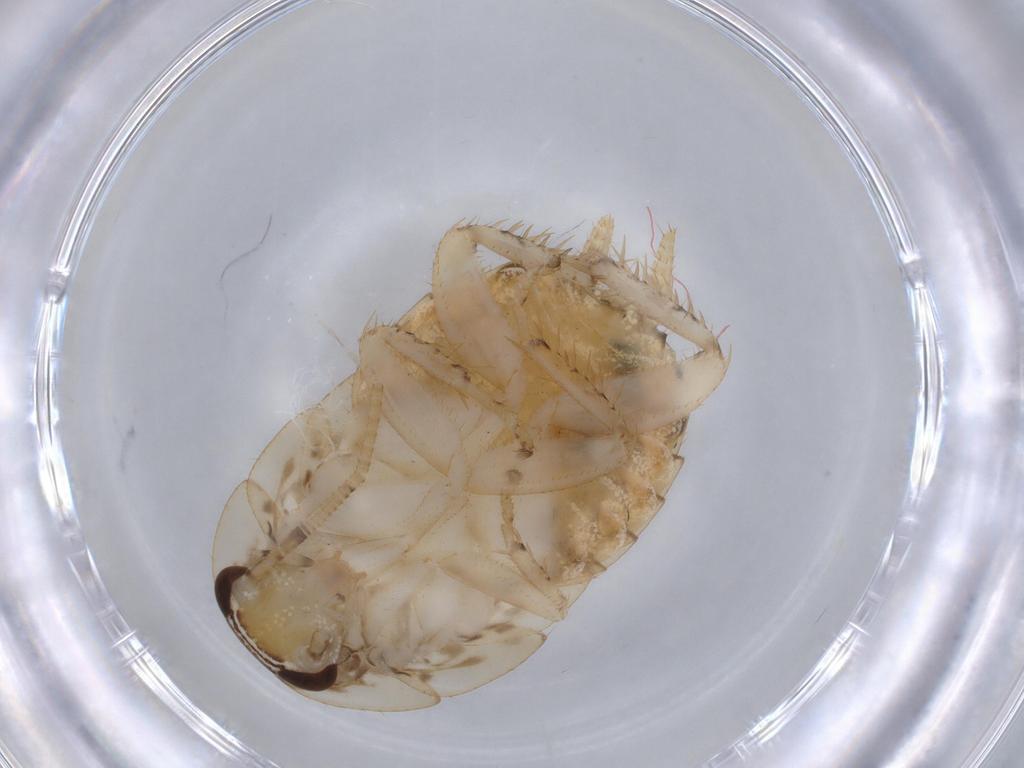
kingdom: Animalia
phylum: Arthropoda
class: Insecta
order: Blattodea
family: Ectobiidae
